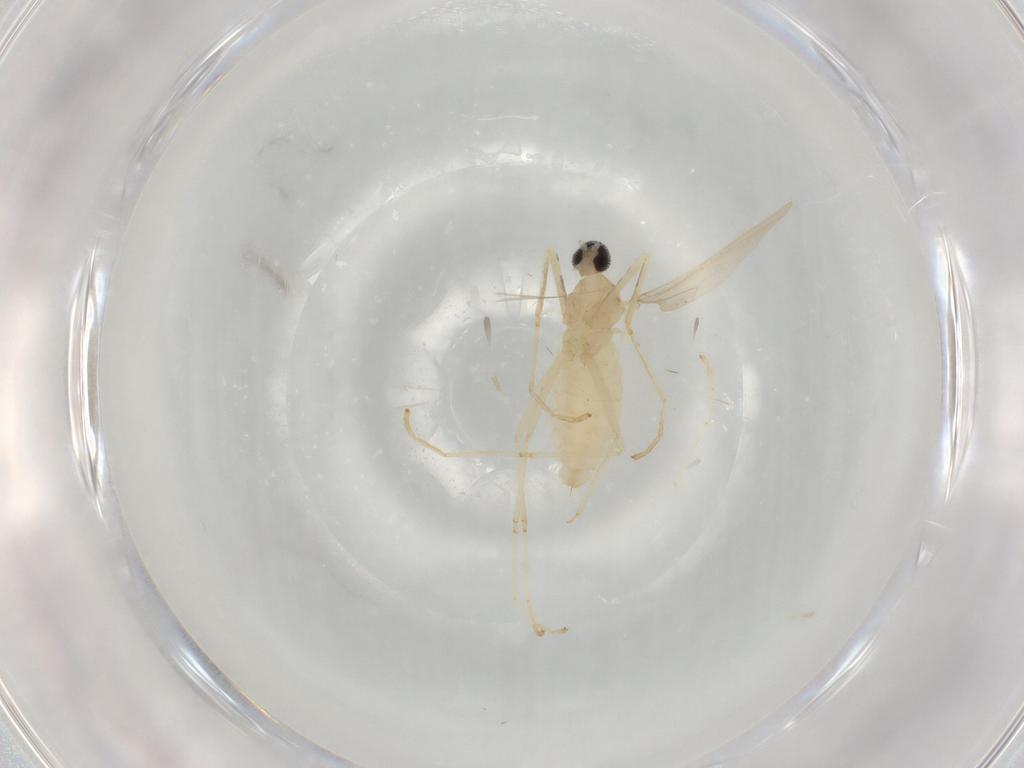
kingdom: Animalia
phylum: Arthropoda
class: Insecta
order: Diptera
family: Cecidomyiidae
